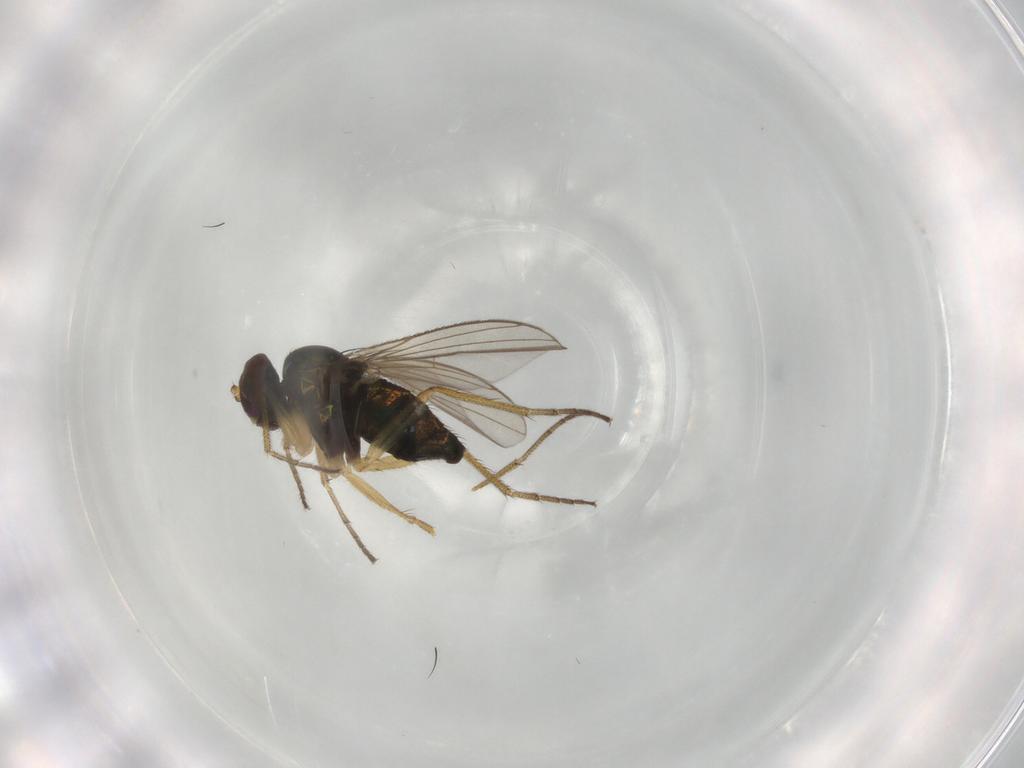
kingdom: Animalia
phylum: Arthropoda
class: Insecta
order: Diptera
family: Dolichopodidae
